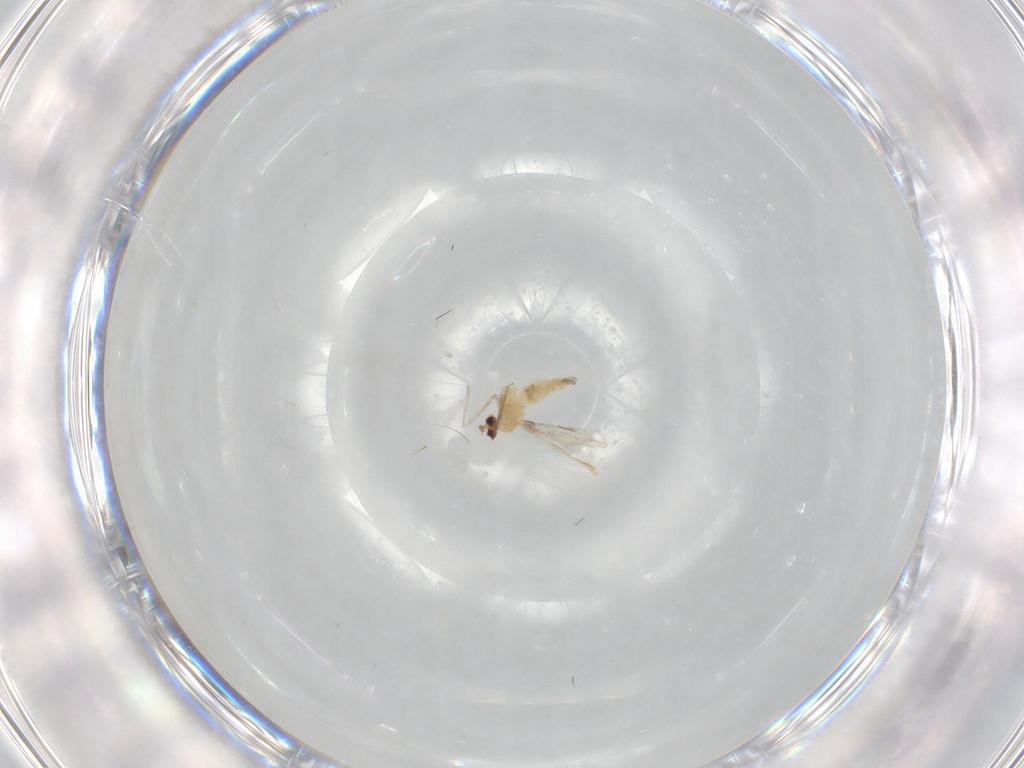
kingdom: Animalia
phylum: Arthropoda
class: Insecta
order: Diptera
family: Cecidomyiidae
